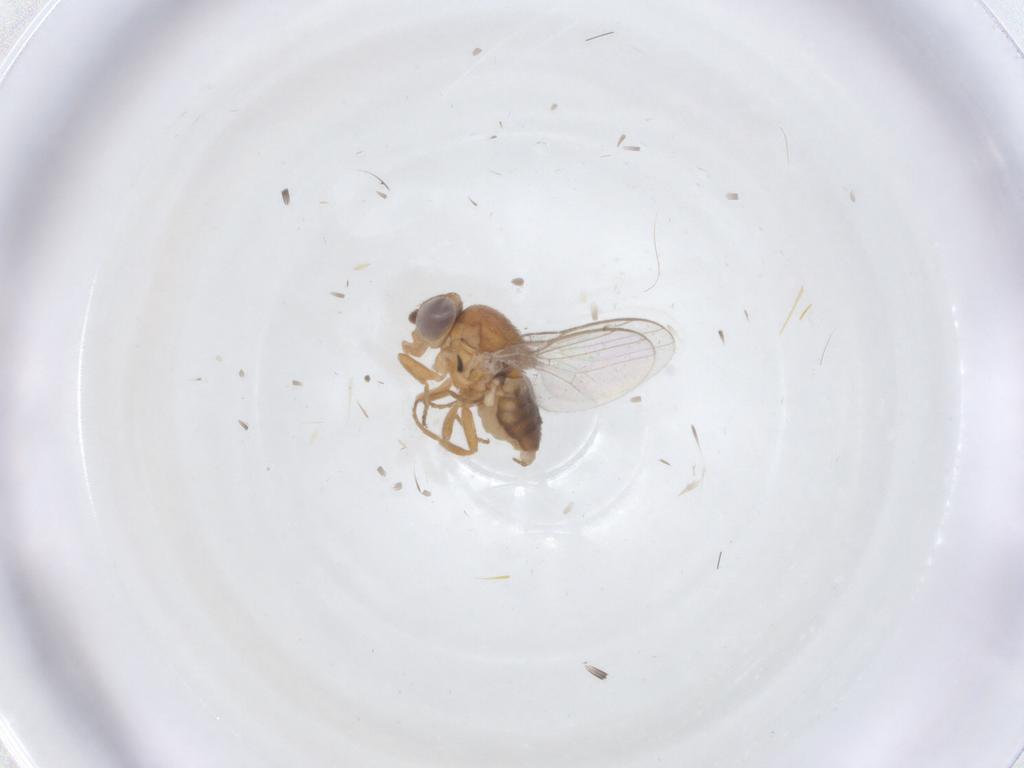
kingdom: Animalia
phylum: Arthropoda
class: Insecta
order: Diptera
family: Chloropidae
